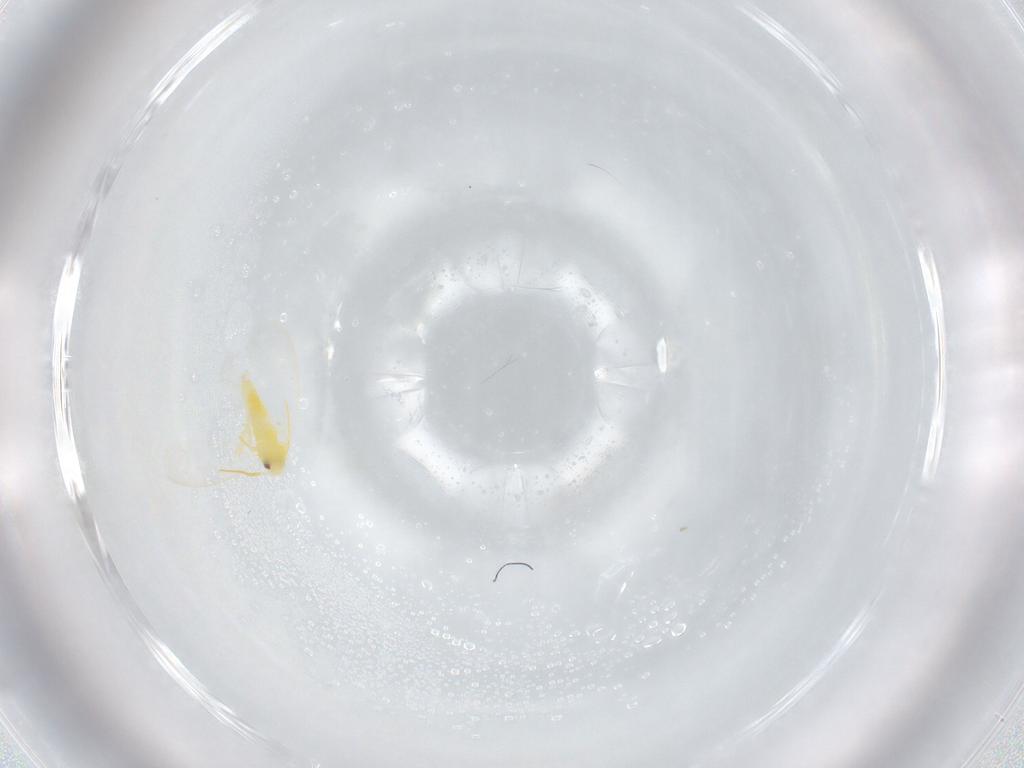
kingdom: Animalia
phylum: Arthropoda
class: Insecta
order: Hemiptera
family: Aleyrodidae
